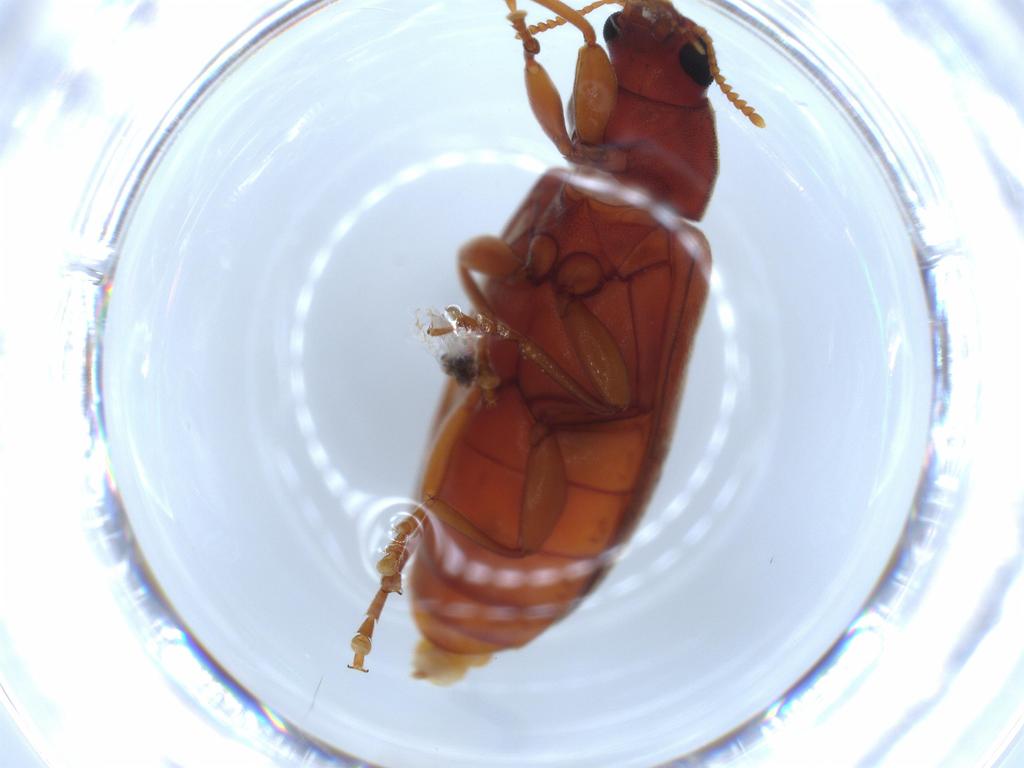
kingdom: Animalia
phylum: Arthropoda
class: Insecta
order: Coleoptera
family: Mycteridae
